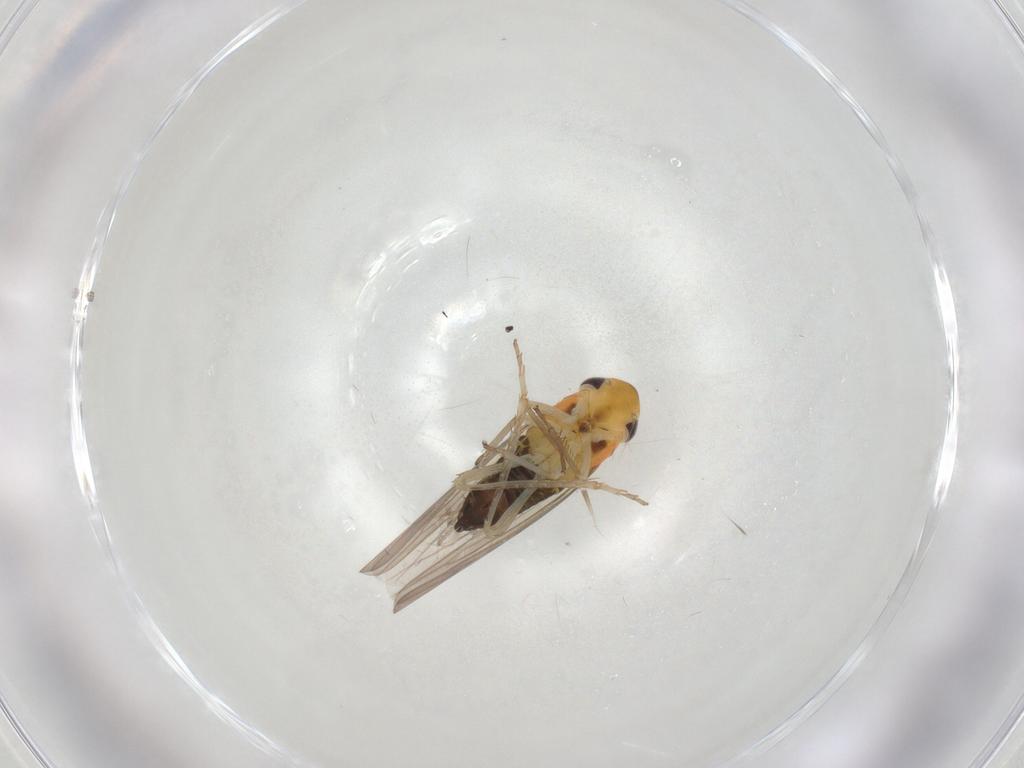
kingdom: Animalia
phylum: Arthropoda
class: Insecta
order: Hemiptera
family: Cicadellidae
